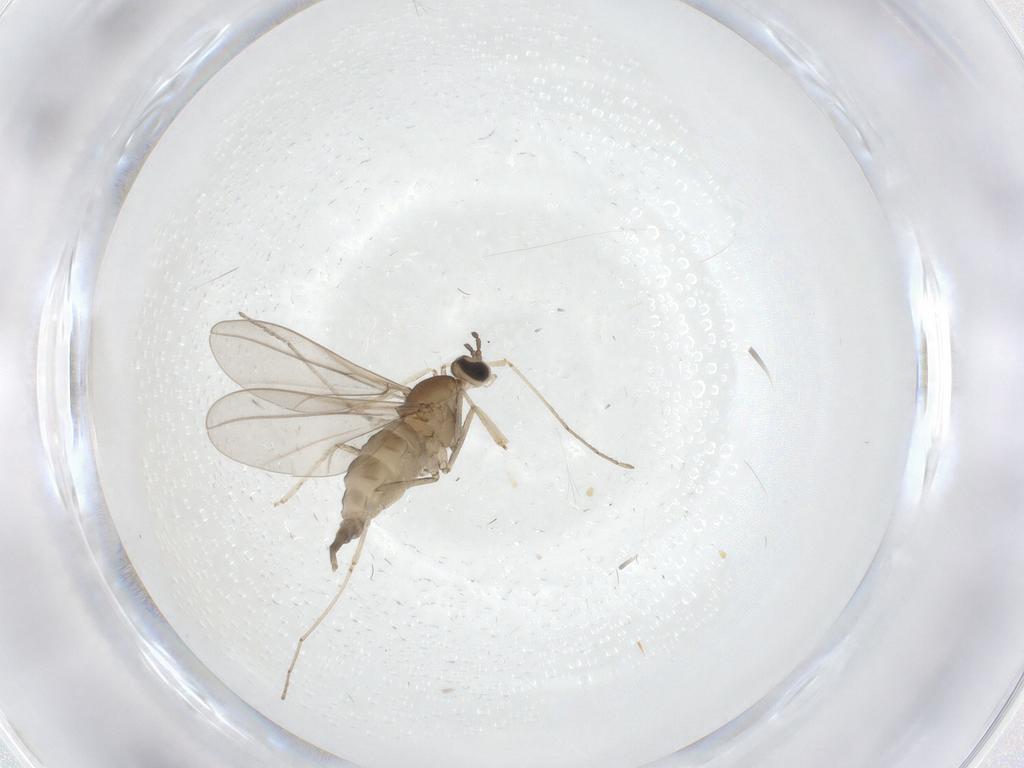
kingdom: Animalia
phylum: Arthropoda
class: Insecta
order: Diptera
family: Cecidomyiidae
